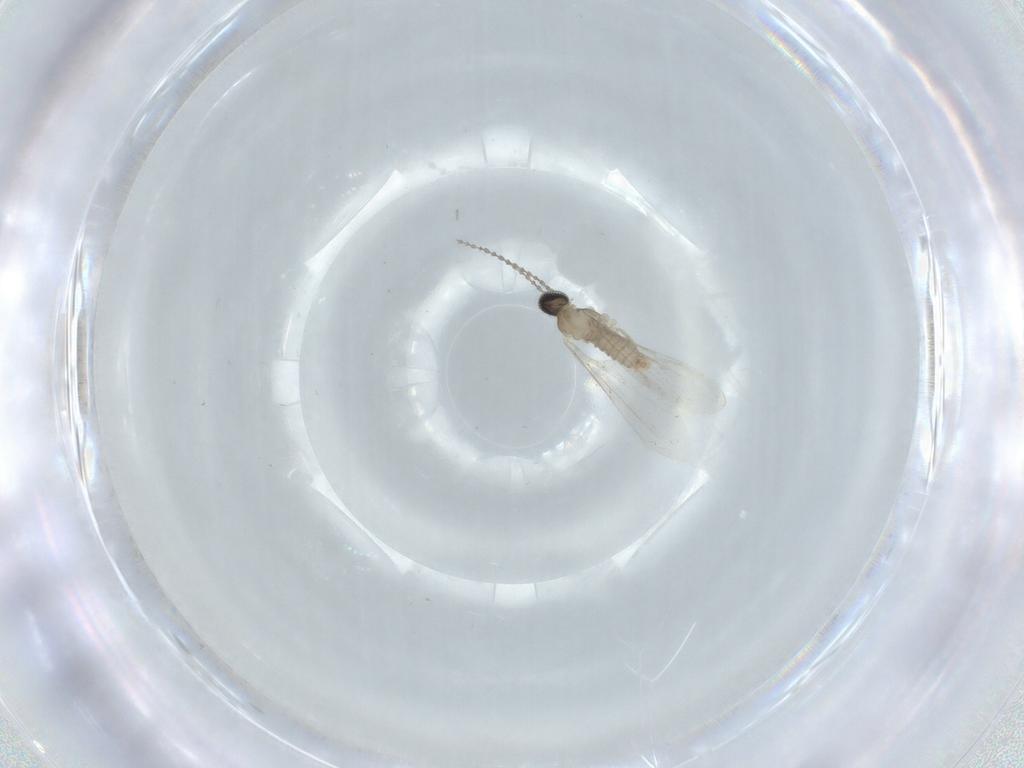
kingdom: Animalia
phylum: Arthropoda
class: Insecta
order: Diptera
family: Cecidomyiidae
